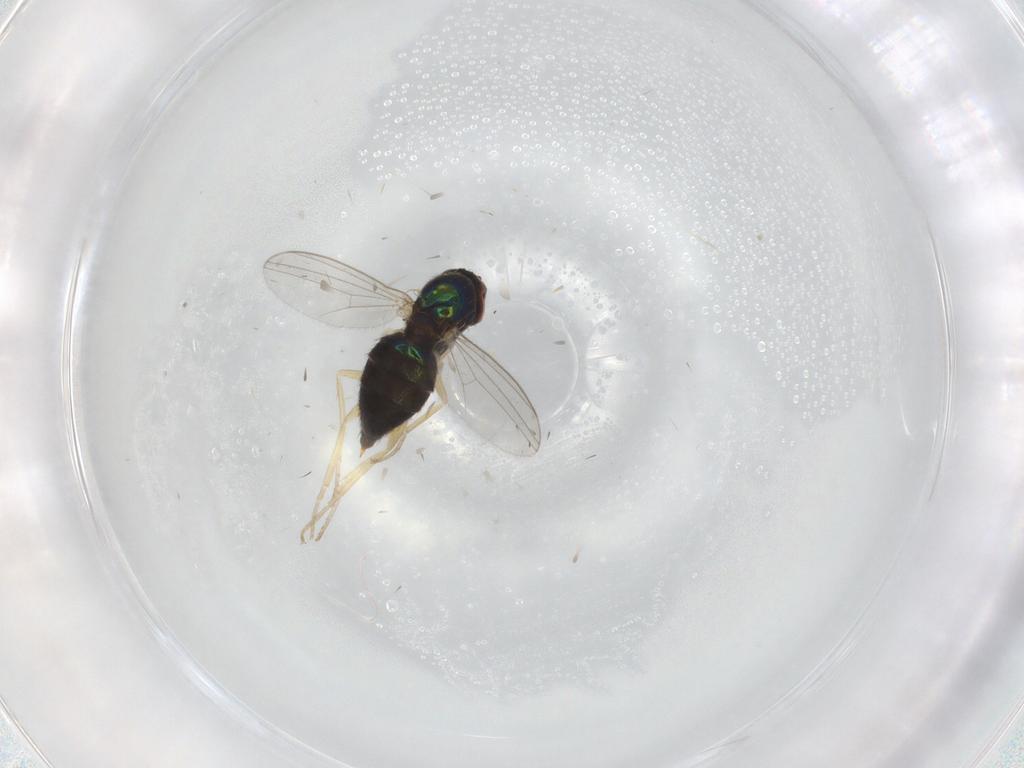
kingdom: Animalia
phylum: Arthropoda
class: Insecta
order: Diptera
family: Dolichopodidae
